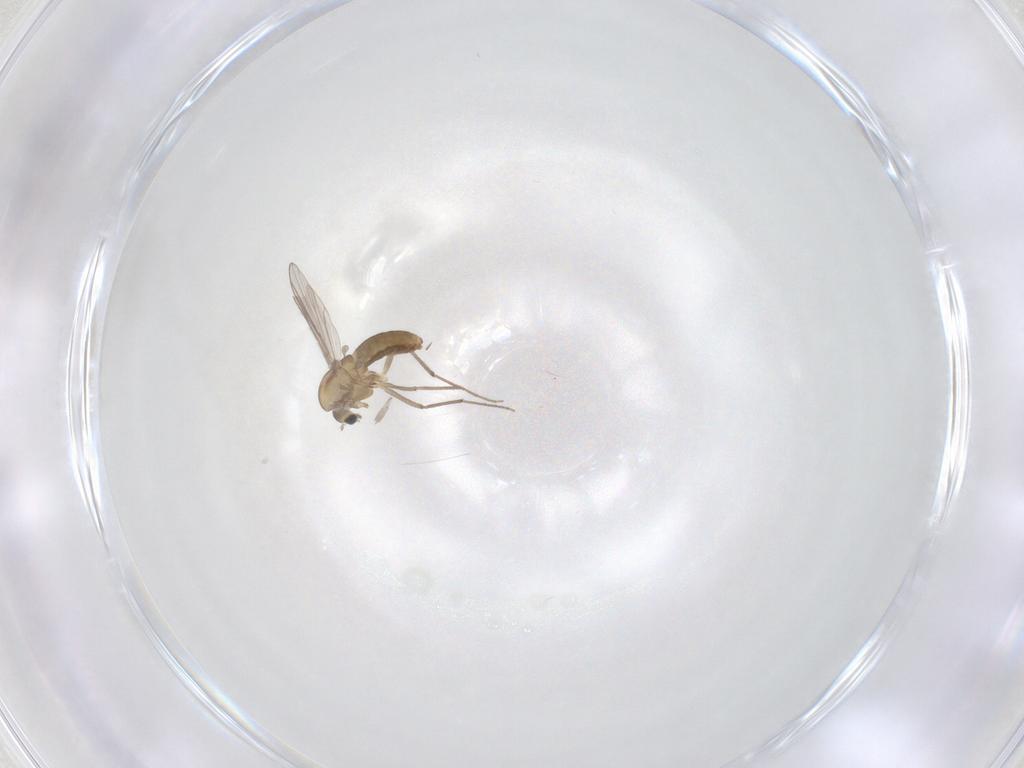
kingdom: Animalia
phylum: Arthropoda
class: Insecta
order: Diptera
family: Chironomidae
